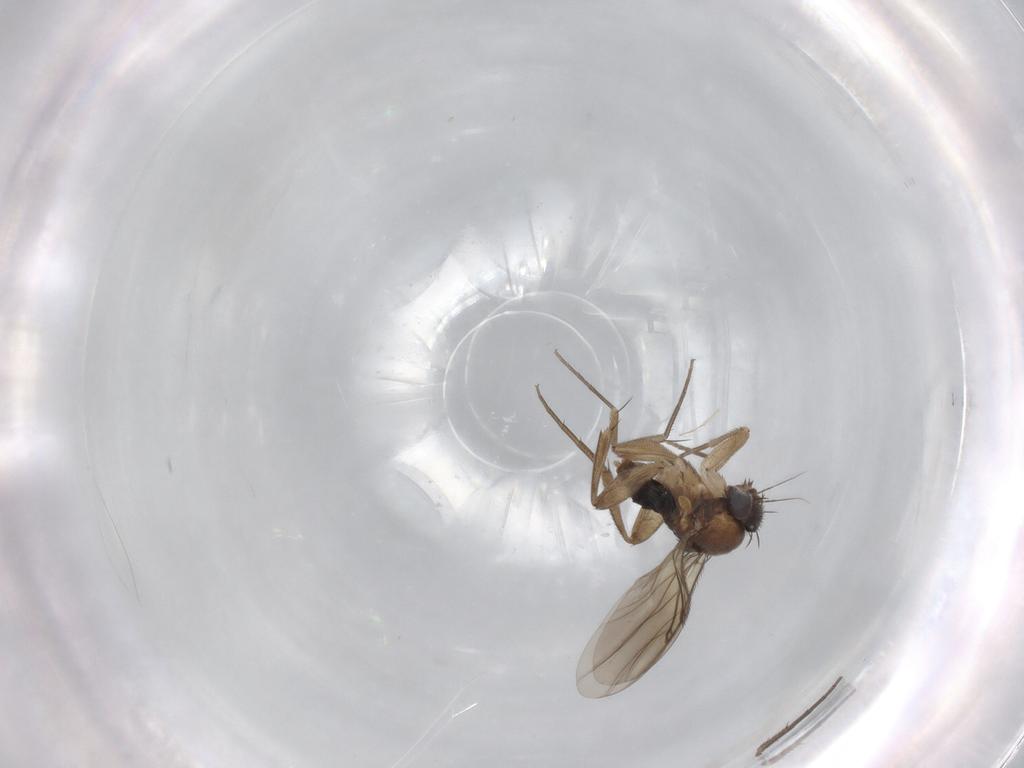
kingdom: Animalia
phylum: Arthropoda
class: Insecta
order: Diptera
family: Phoridae
